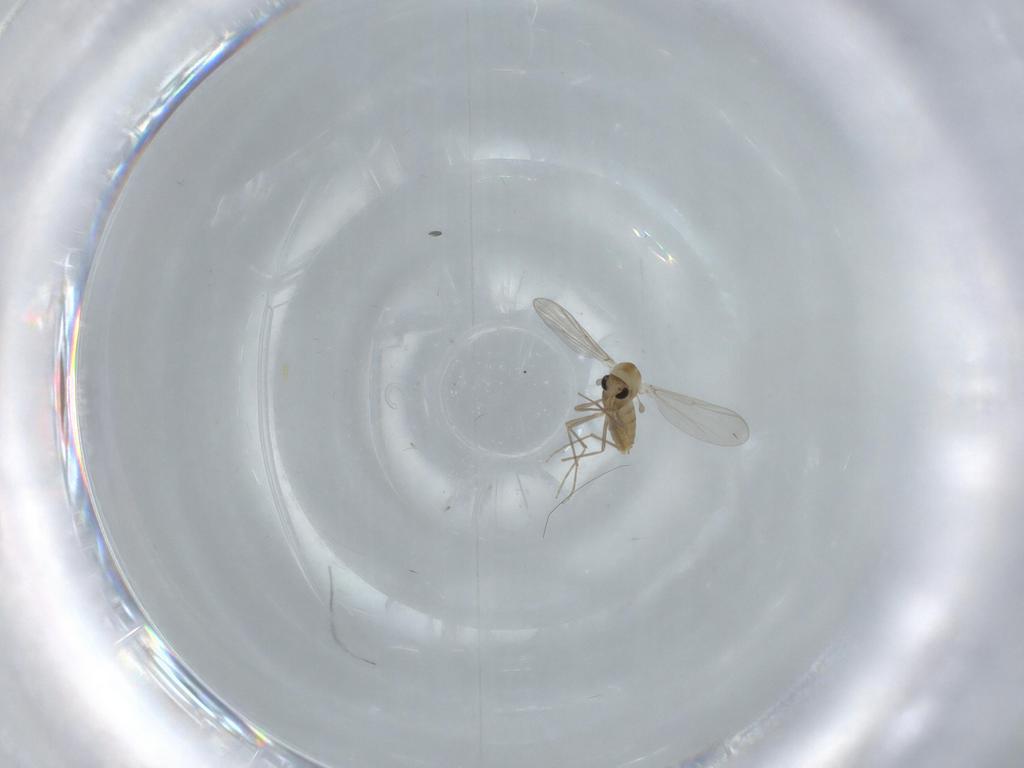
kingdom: Animalia
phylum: Arthropoda
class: Insecta
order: Diptera
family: Chironomidae
